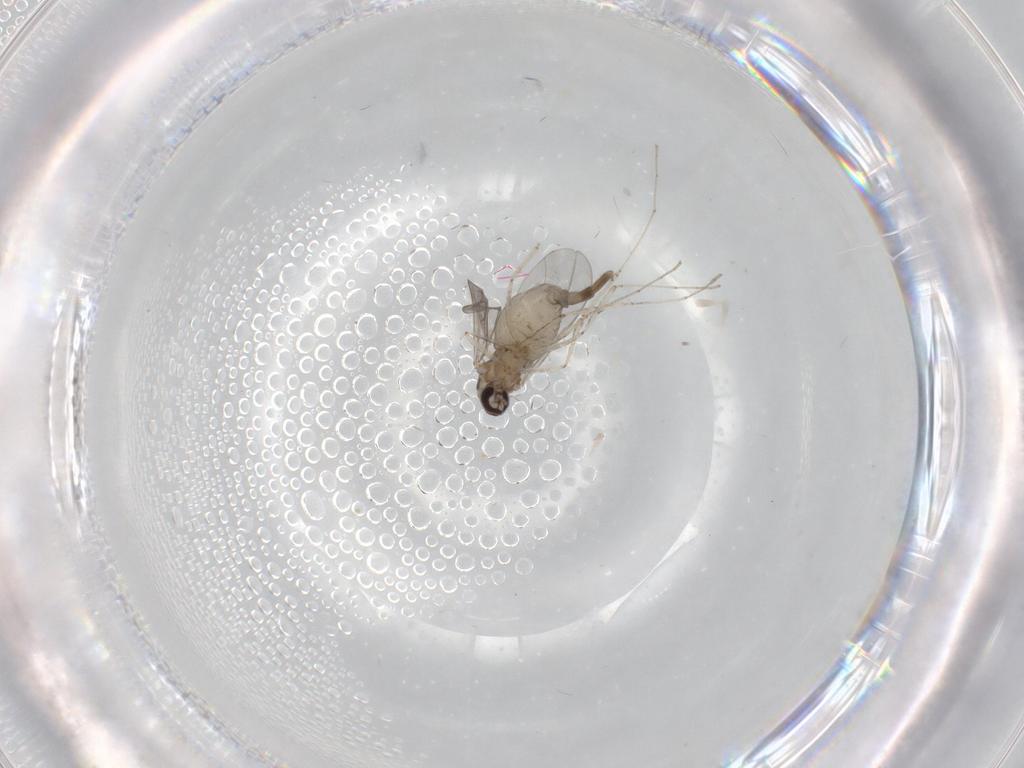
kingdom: Animalia
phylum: Arthropoda
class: Insecta
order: Diptera
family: Cecidomyiidae
